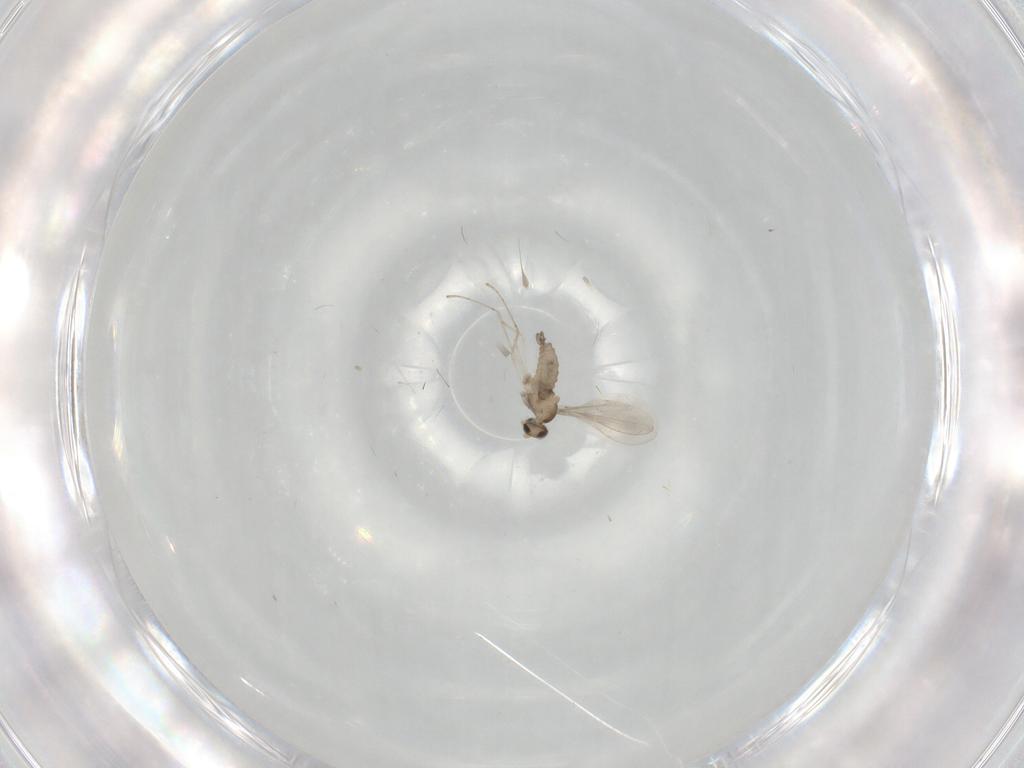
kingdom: Animalia
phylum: Arthropoda
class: Insecta
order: Diptera
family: Cecidomyiidae
